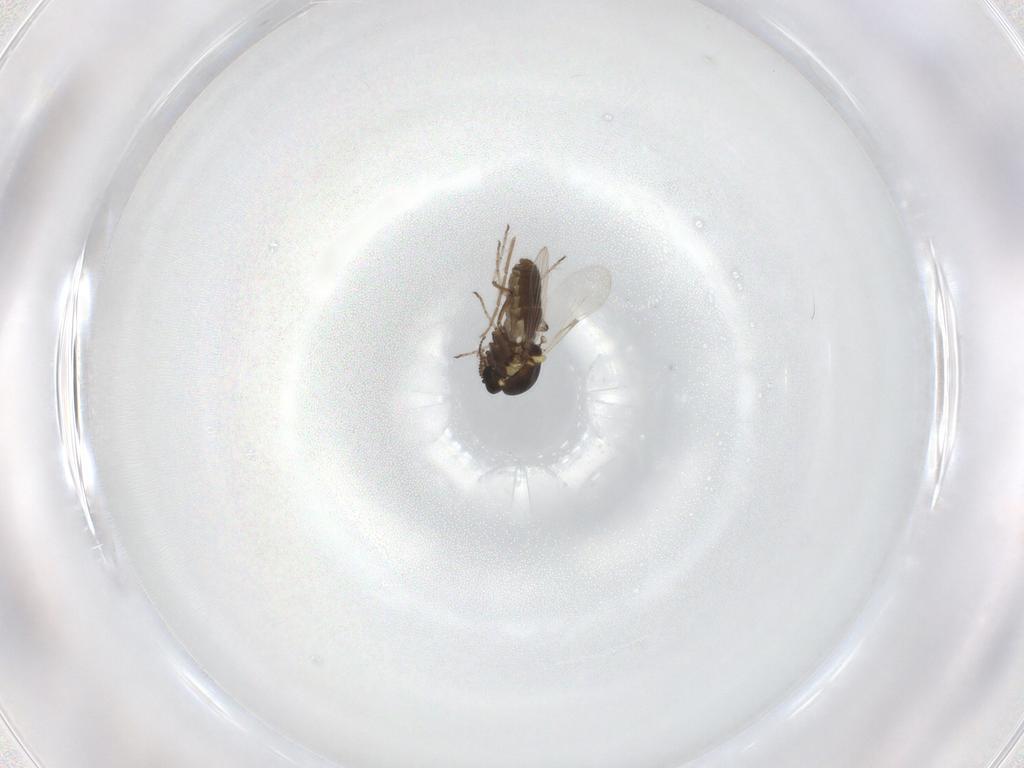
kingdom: Animalia
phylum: Arthropoda
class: Insecta
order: Diptera
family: Ceratopogonidae
